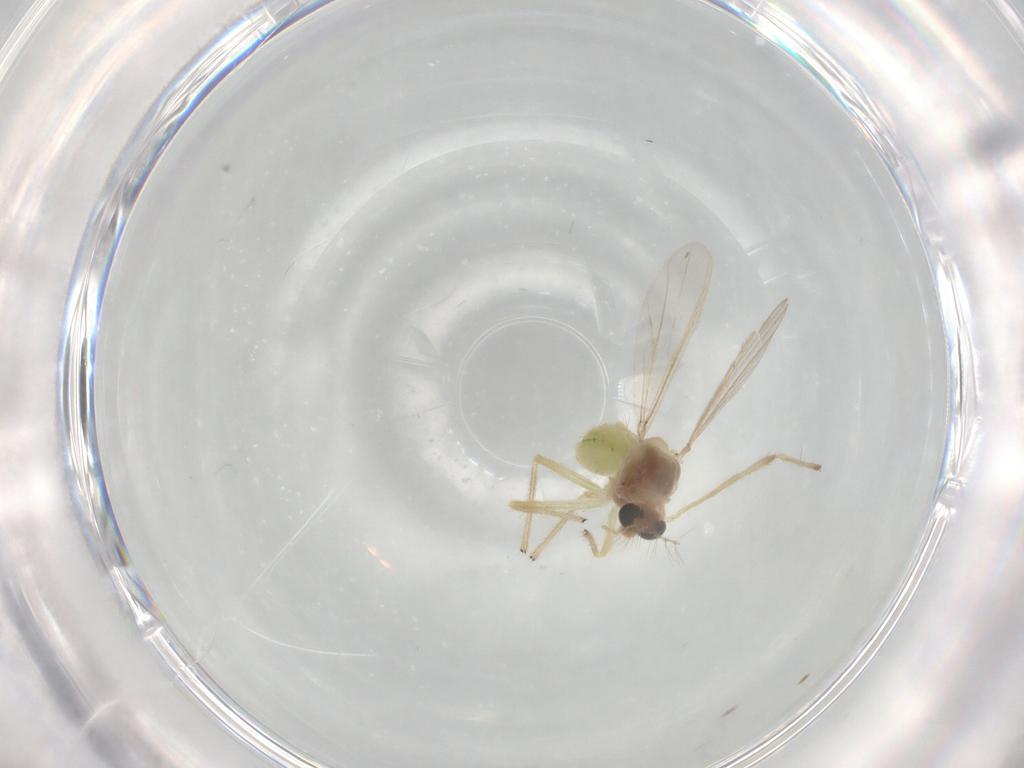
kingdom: Animalia
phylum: Arthropoda
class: Insecta
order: Diptera
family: Chironomidae
